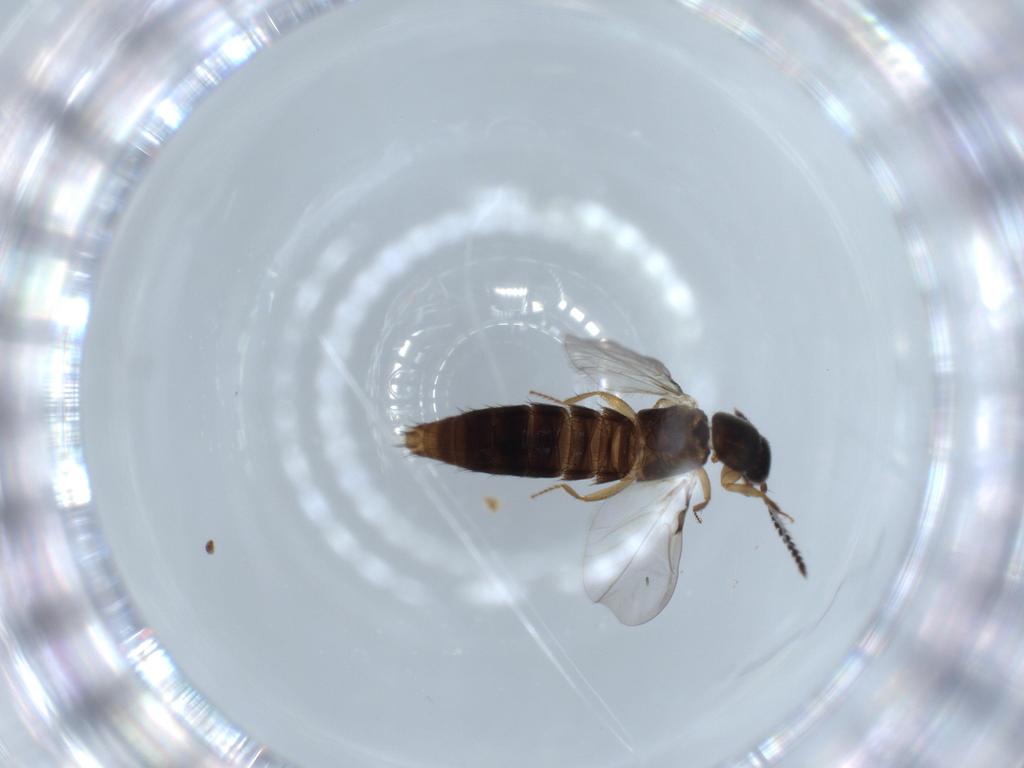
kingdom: Animalia
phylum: Arthropoda
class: Insecta
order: Coleoptera
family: Staphylinidae
